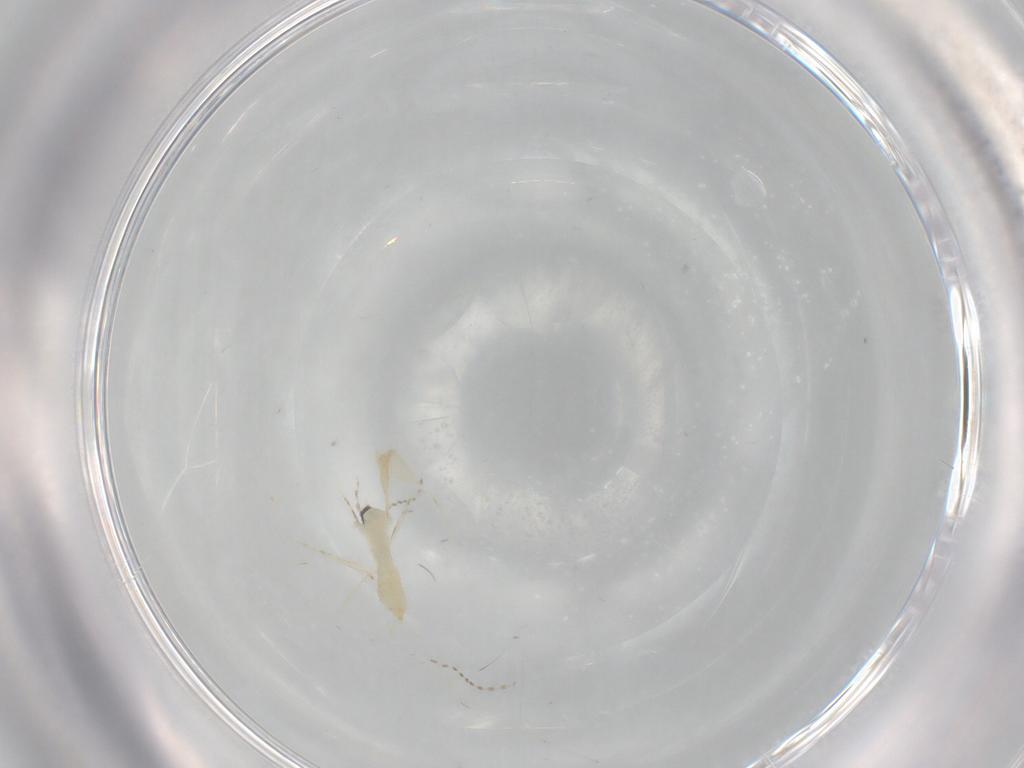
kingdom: Animalia
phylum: Arthropoda
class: Insecta
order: Diptera
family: Cecidomyiidae
